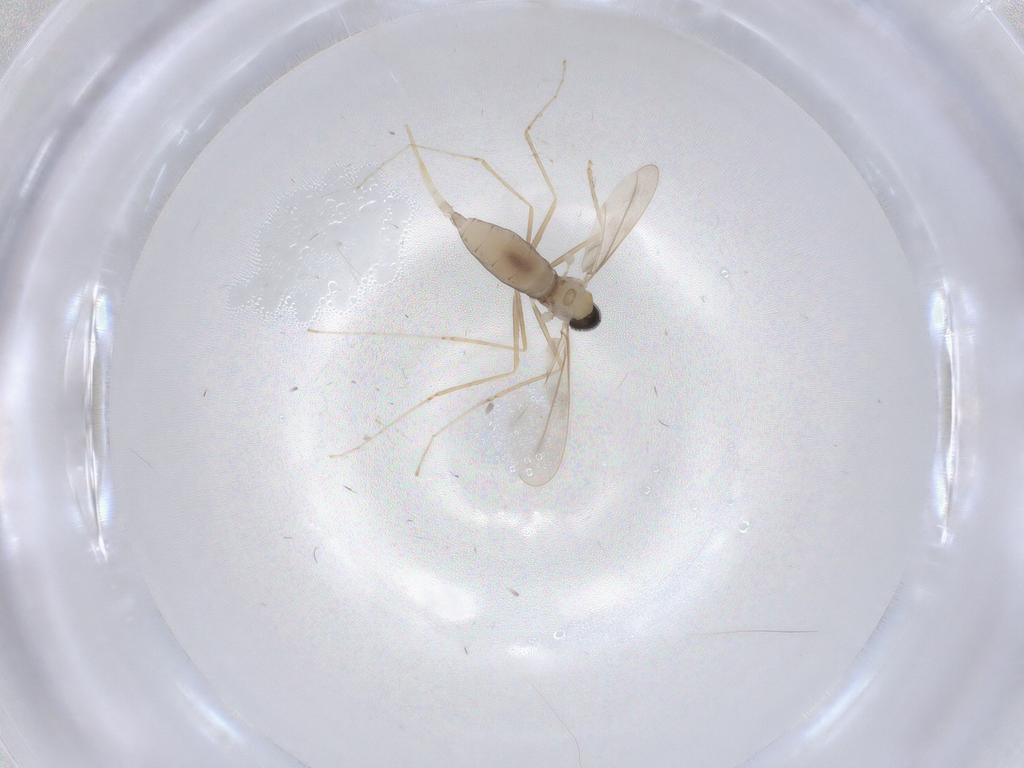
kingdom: Animalia
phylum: Arthropoda
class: Insecta
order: Diptera
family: Cecidomyiidae
